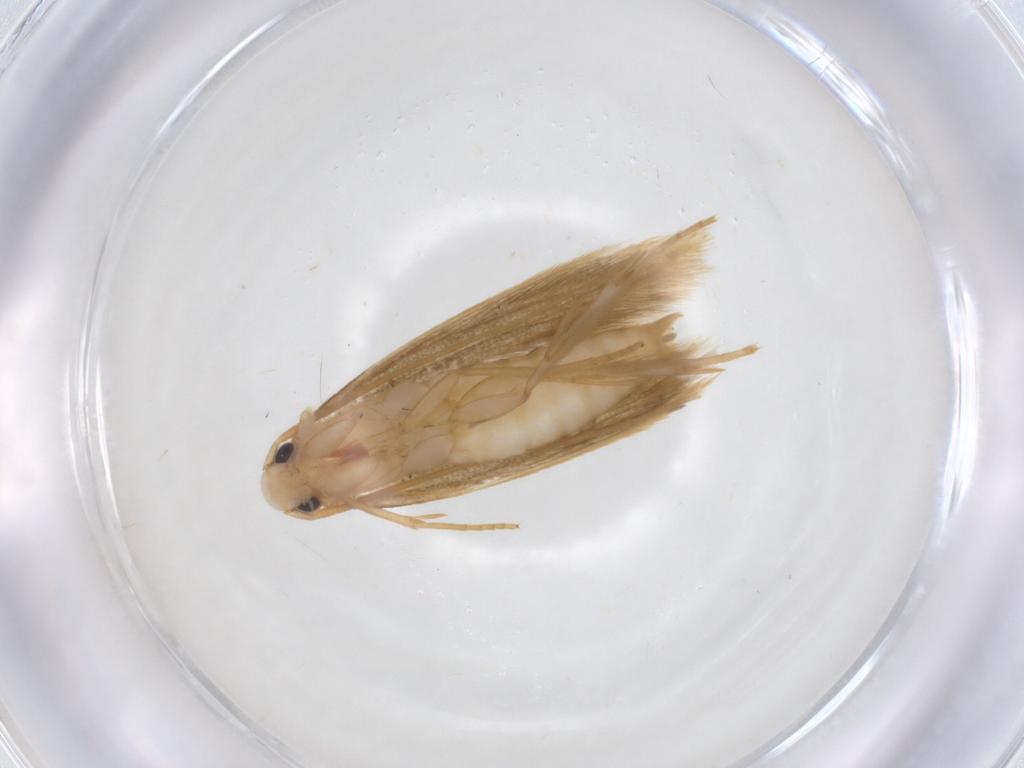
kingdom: Animalia
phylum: Arthropoda
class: Insecta
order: Lepidoptera
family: Tineidae
